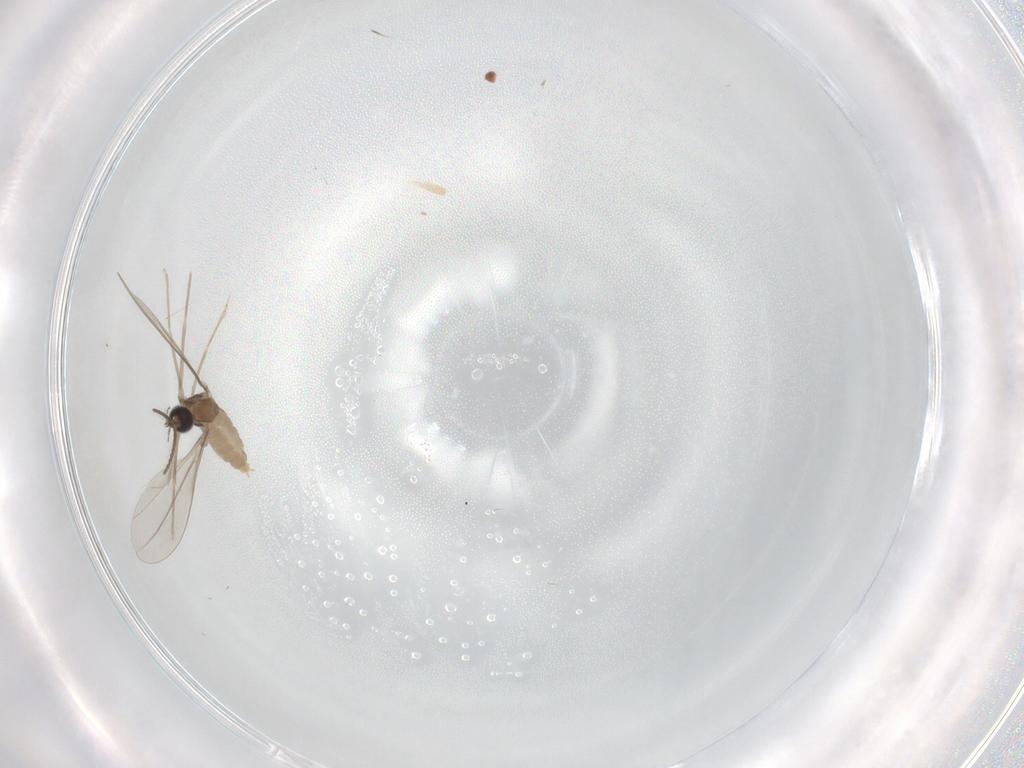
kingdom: Animalia
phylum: Arthropoda
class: Insecta
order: Diptera
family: Cecidomyiidae
